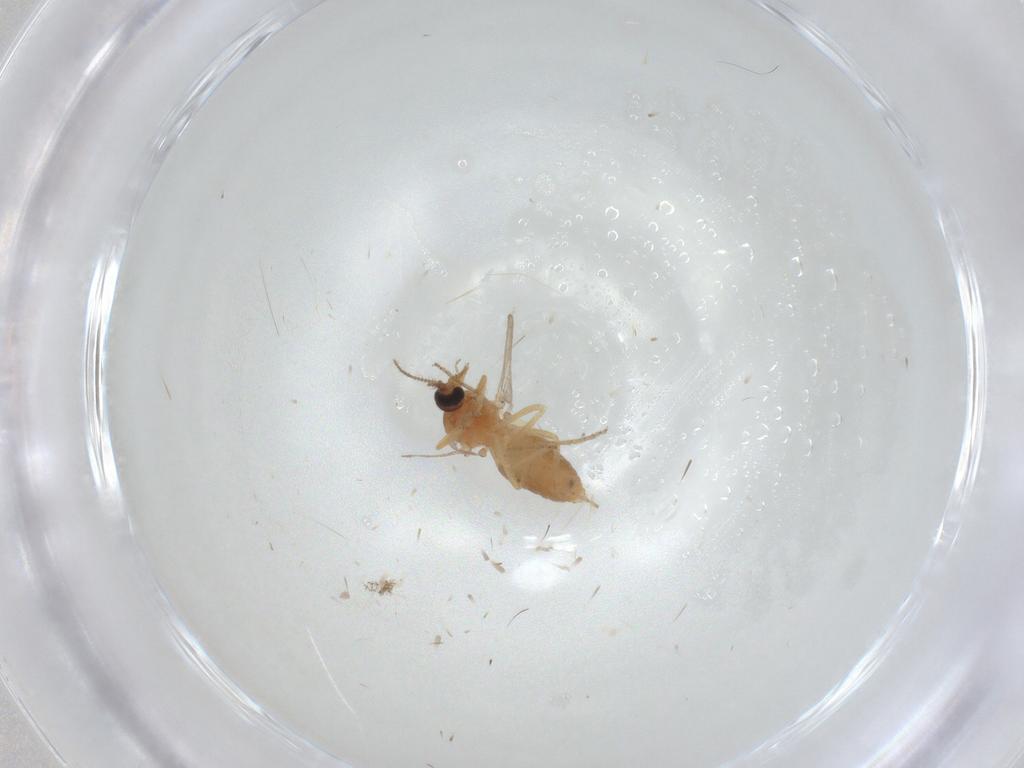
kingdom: Animalia
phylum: Arthropoda
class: Insecta
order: Diptera
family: Ceratopogonidae
